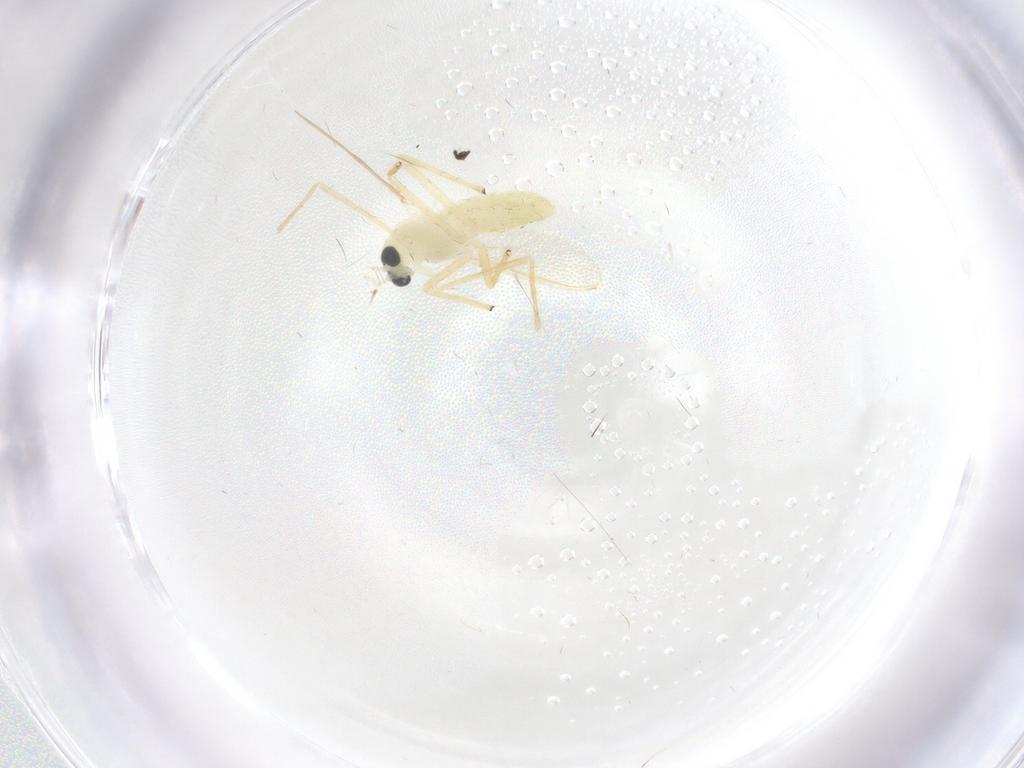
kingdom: Animalia
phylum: Arthropoda
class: Insecta
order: Diptera
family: Chironomidae
